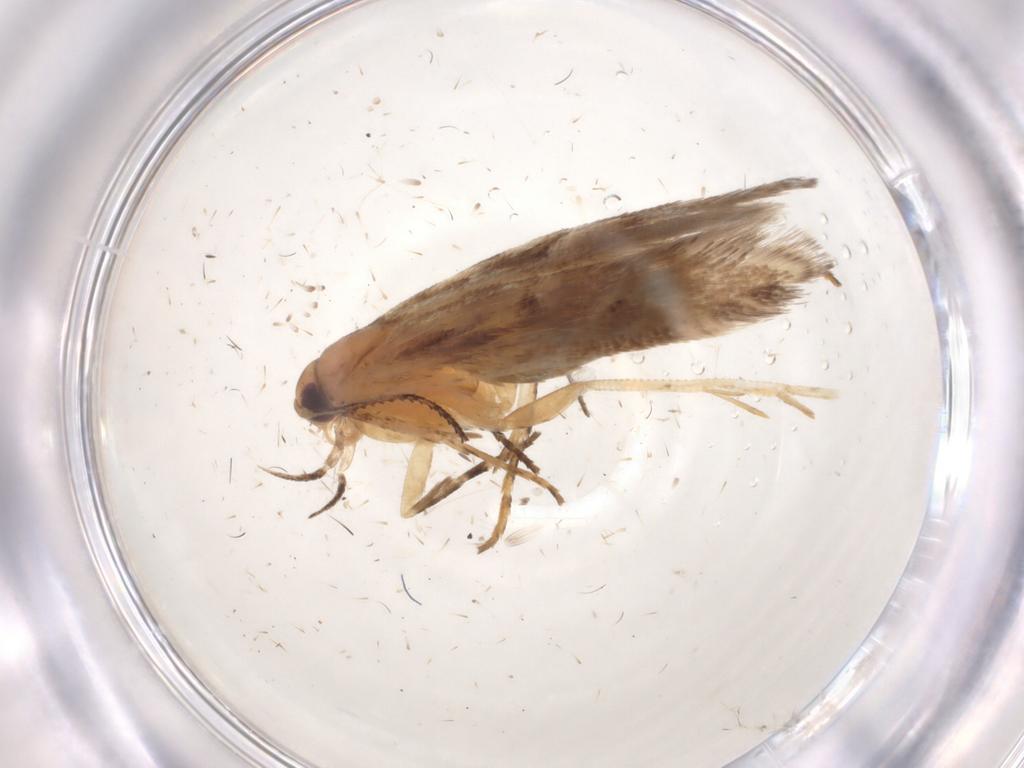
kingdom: Animalia
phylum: Arthropoda
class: Insecta
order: Lepidoptera
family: Gelechiidae
